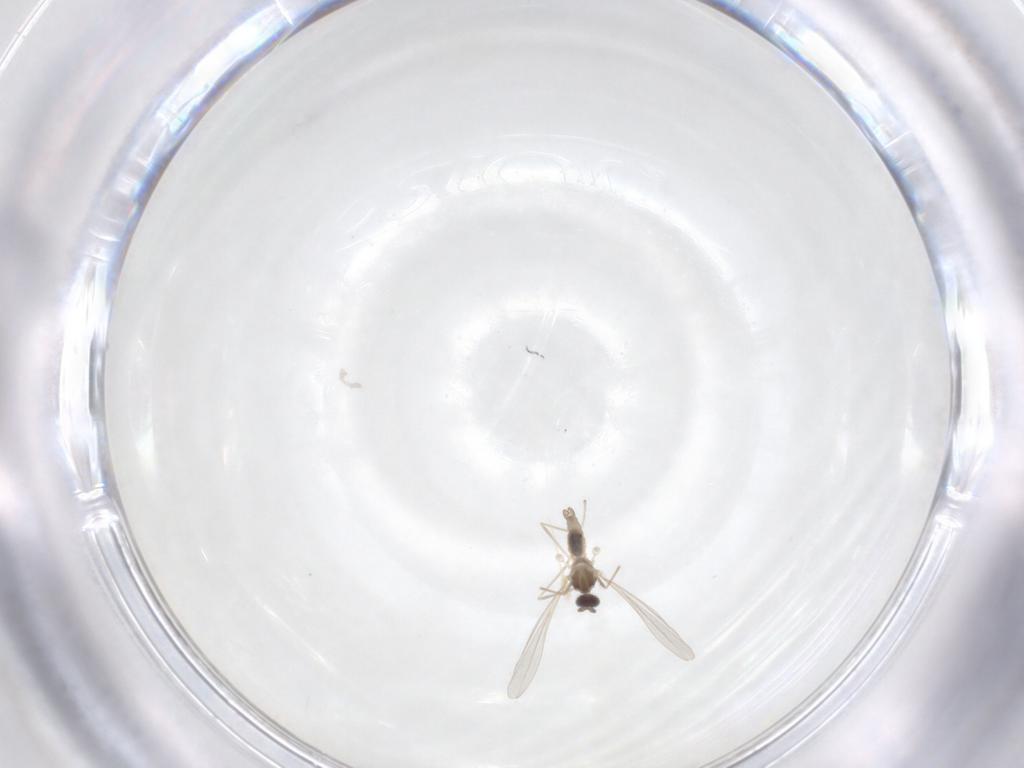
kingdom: Animalia
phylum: Arthropoda
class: Insecta
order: Diptera
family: Cecidomyiidae
